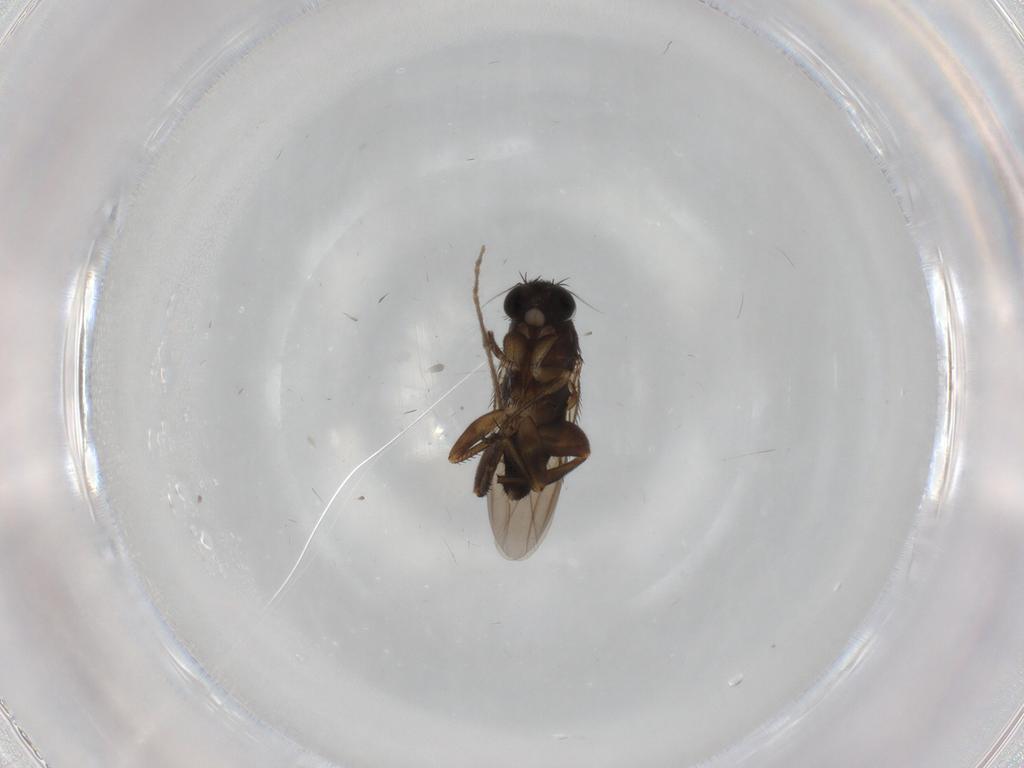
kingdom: Animalia
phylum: Arthropoda
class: Insecta
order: Diptera
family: Phoridae
